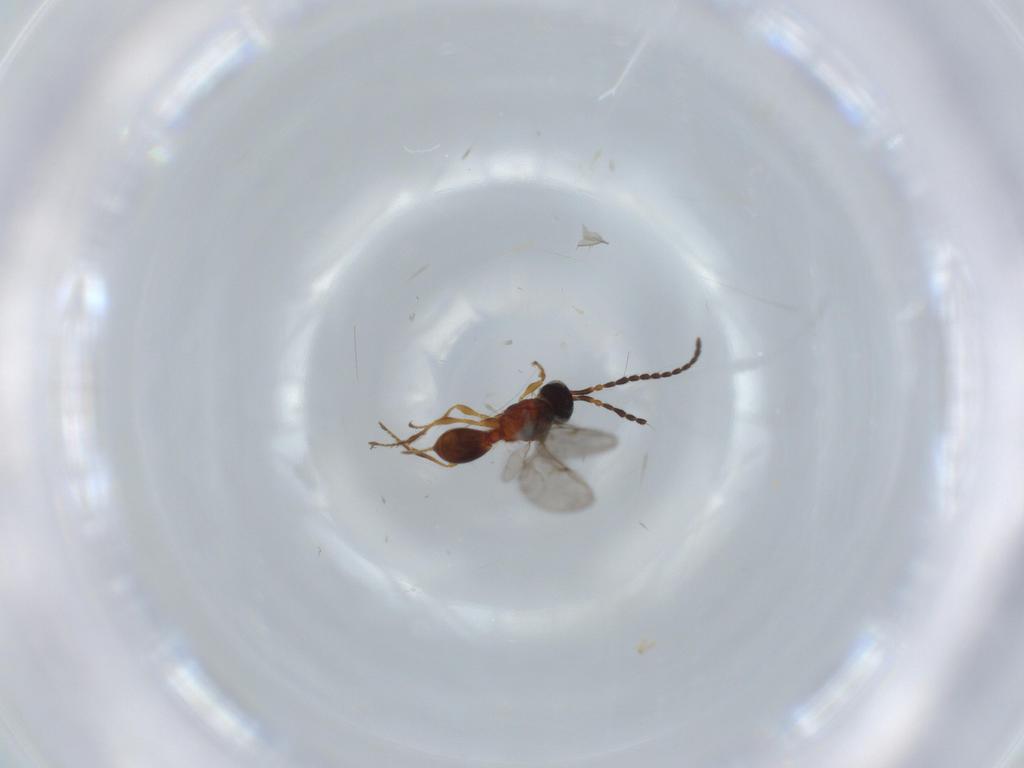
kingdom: Animalia
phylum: Arthropoda
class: Insecta
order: Hymenoptera
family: Diapriidae
